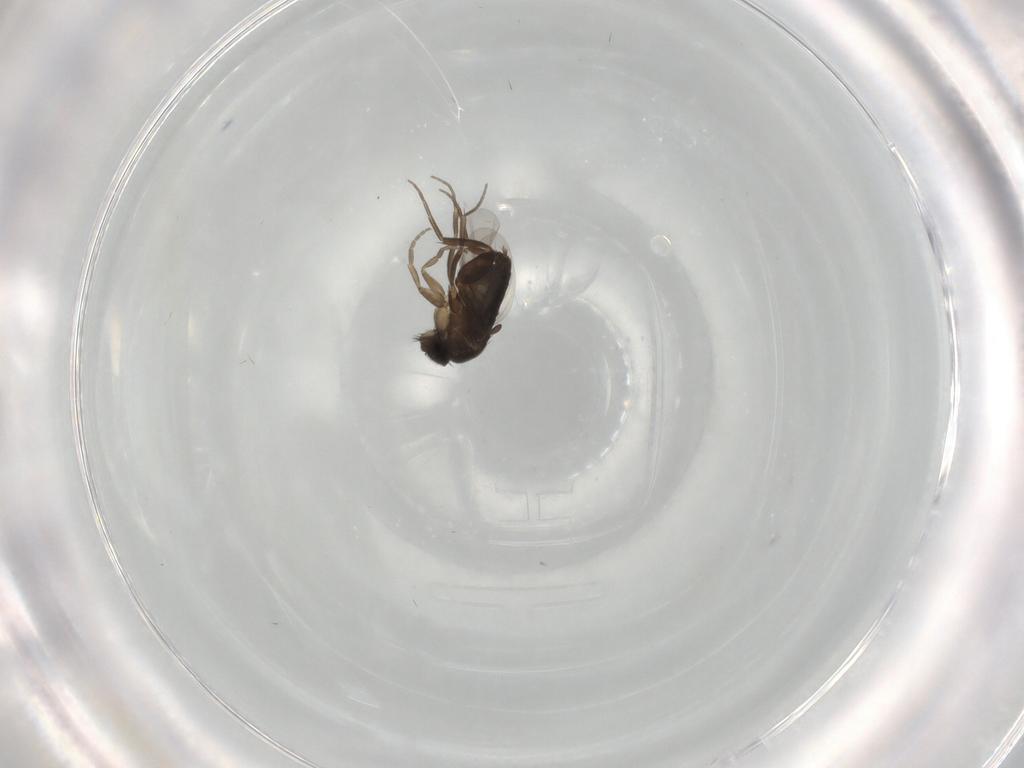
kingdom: Animalia
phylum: Arthropoda
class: Insecta
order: Diptera
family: Phoridae
